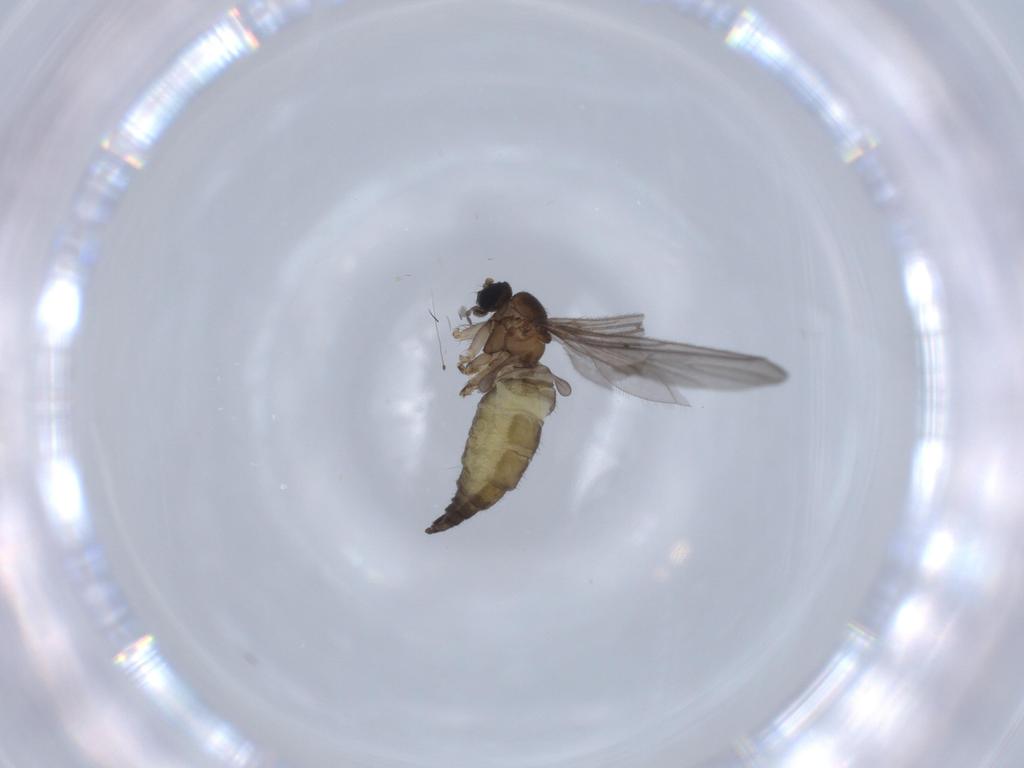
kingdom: Animalia
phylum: Arthropoda
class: Insecta
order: Diptera
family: Sciaridae
